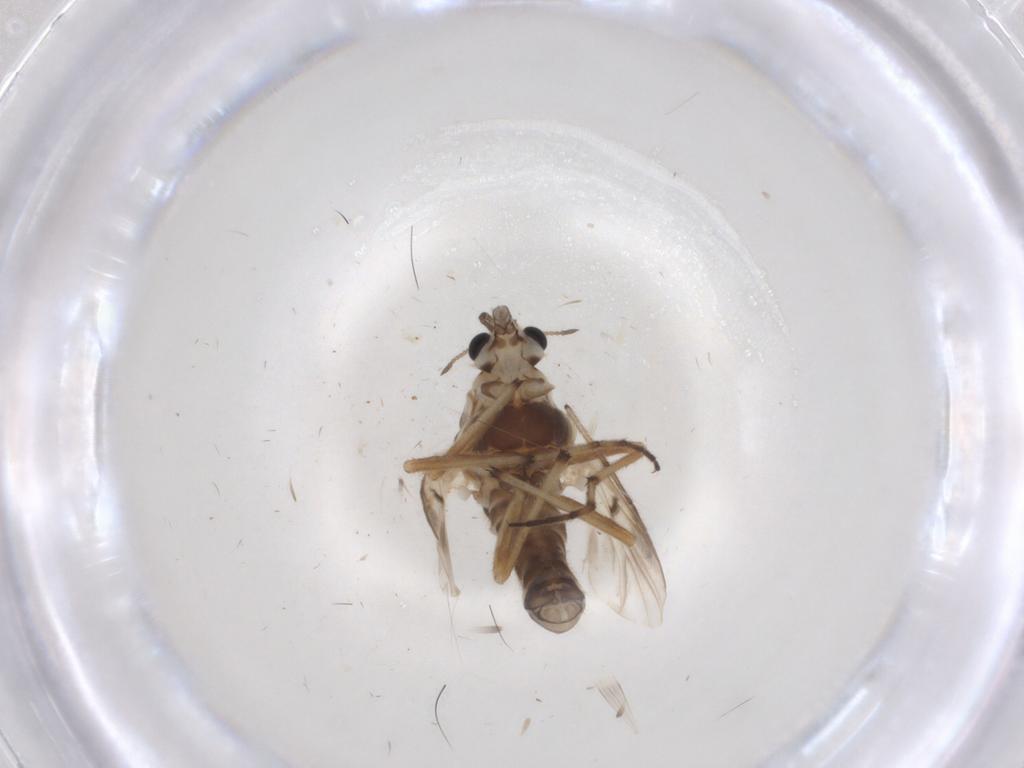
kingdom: Animalia
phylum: Arthropoda
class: Insecta
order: Diptera
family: Chironomidae
